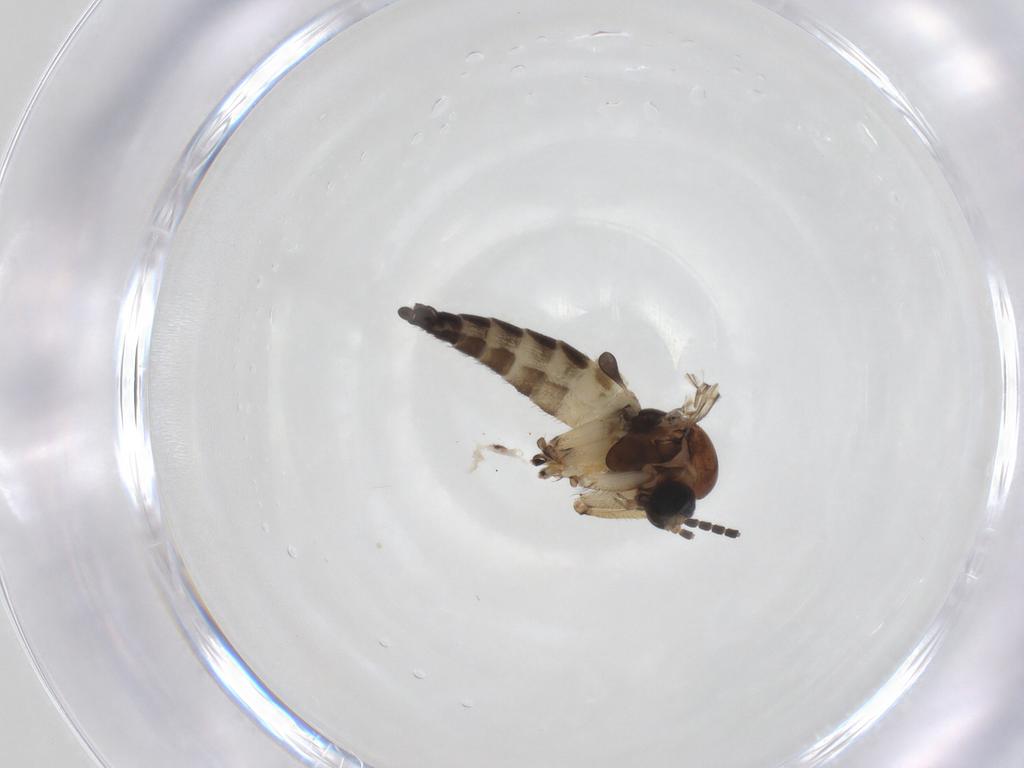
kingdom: Animalia
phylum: Arthropoda
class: Insecta
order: Diptera
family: Sciaridae
